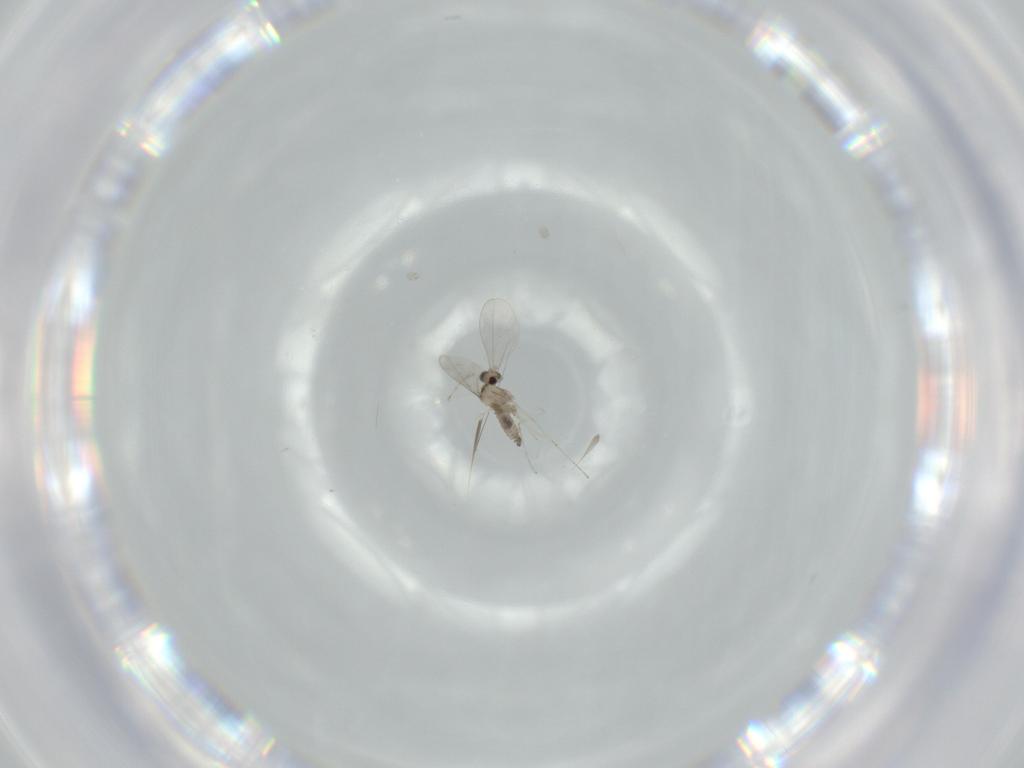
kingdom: Animalia
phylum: Arthropoda
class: Insecta
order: Diptera
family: Cecidomyiidae
